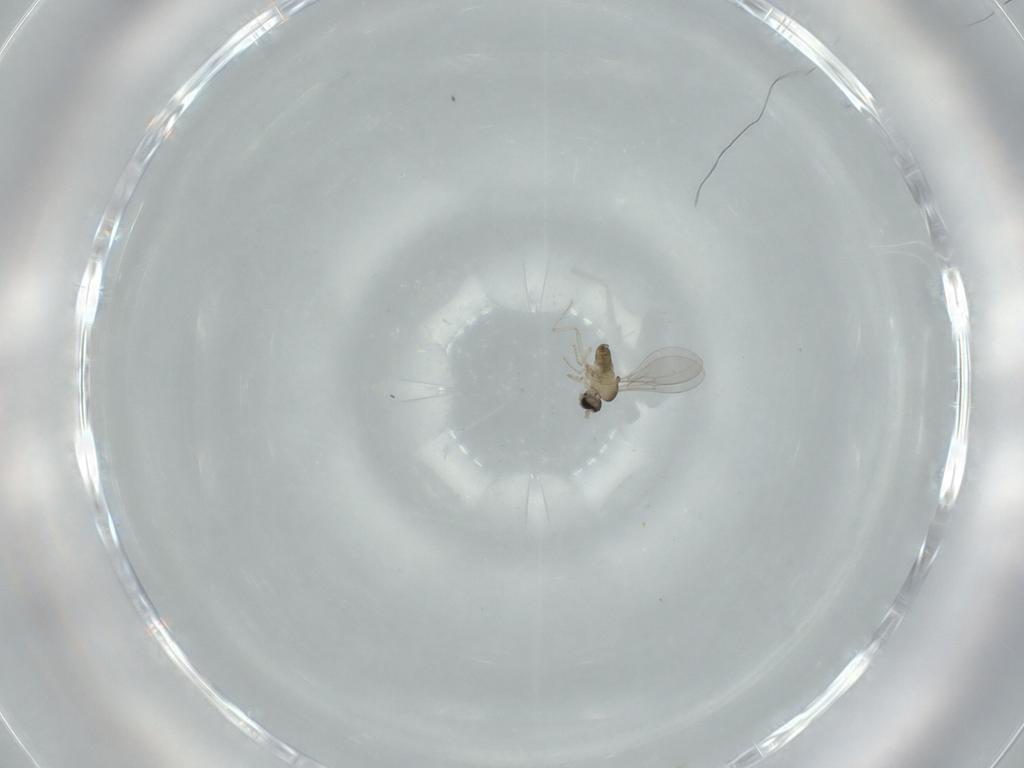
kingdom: Animalia
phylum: Arthropoda
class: Insecta
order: Diptera
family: Cecidomyiidae
